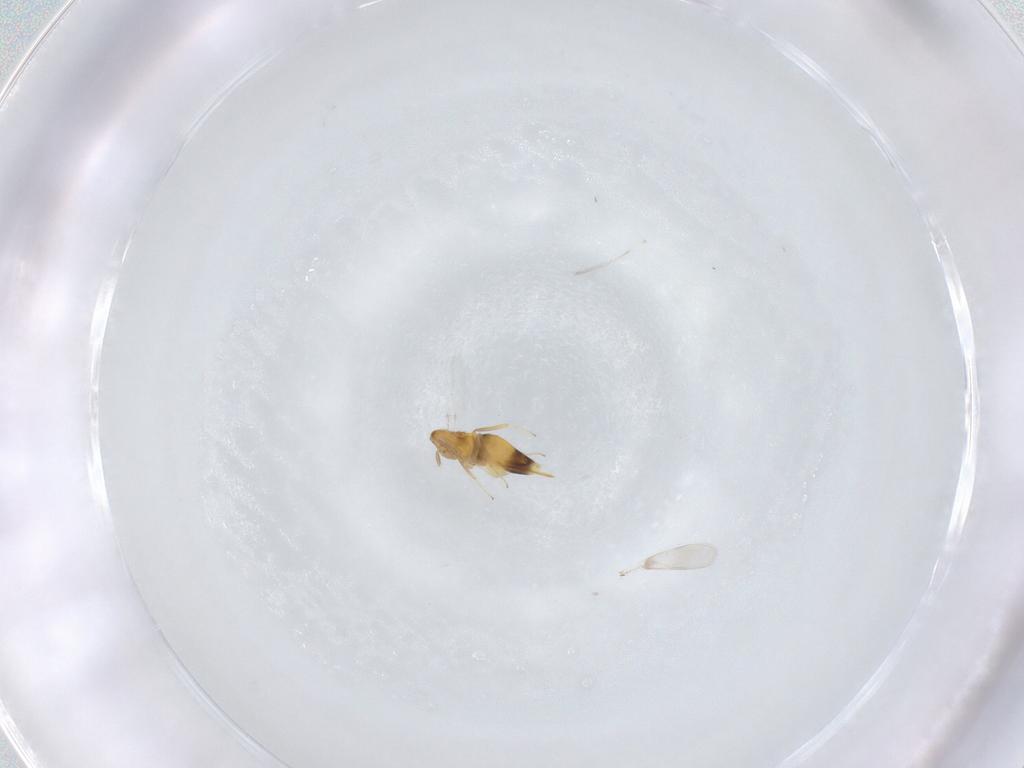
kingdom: Animalia
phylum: Arthropoda
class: Insecta
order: Hymenoptera
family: Aphelinidae
